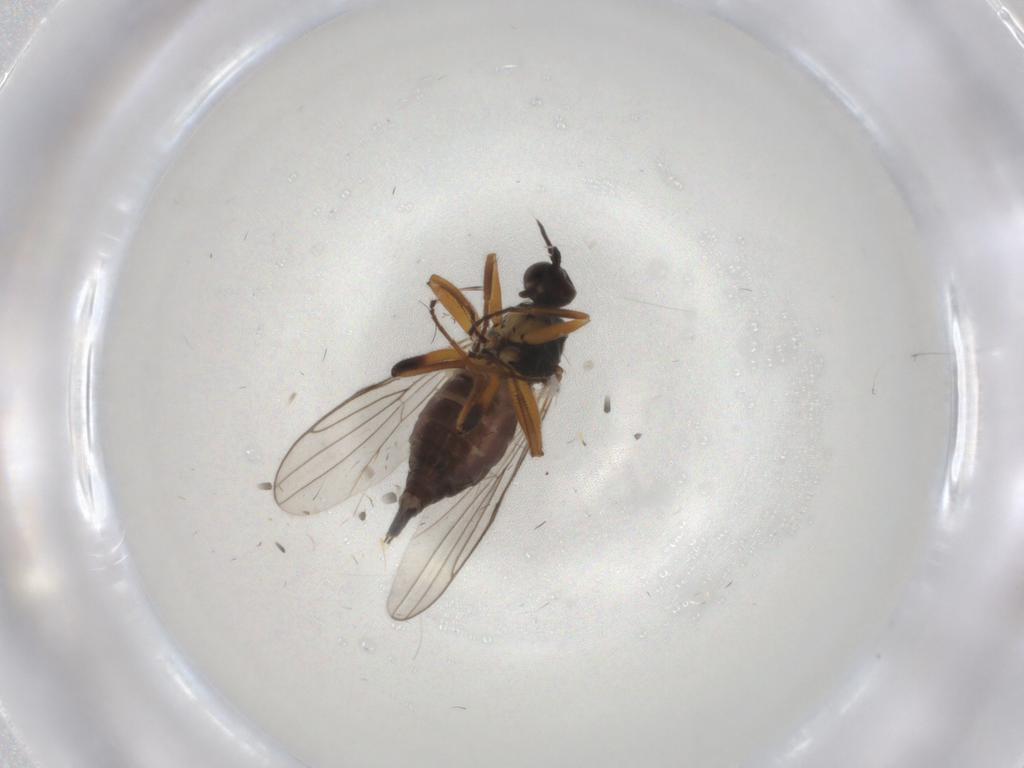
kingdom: Animalia
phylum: Arthropoda
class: Insecta
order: Diptera
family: Hybotidae
